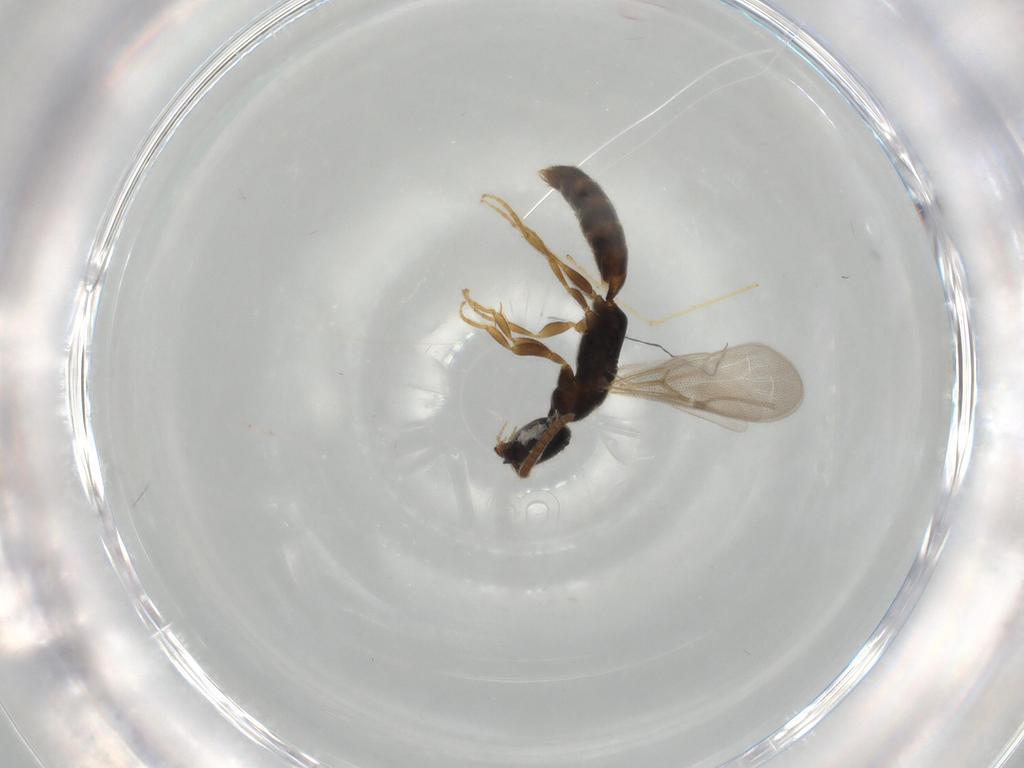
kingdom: Animalia
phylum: Arthropoda
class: Insecta
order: Hymenoptera
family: Bethylidae
